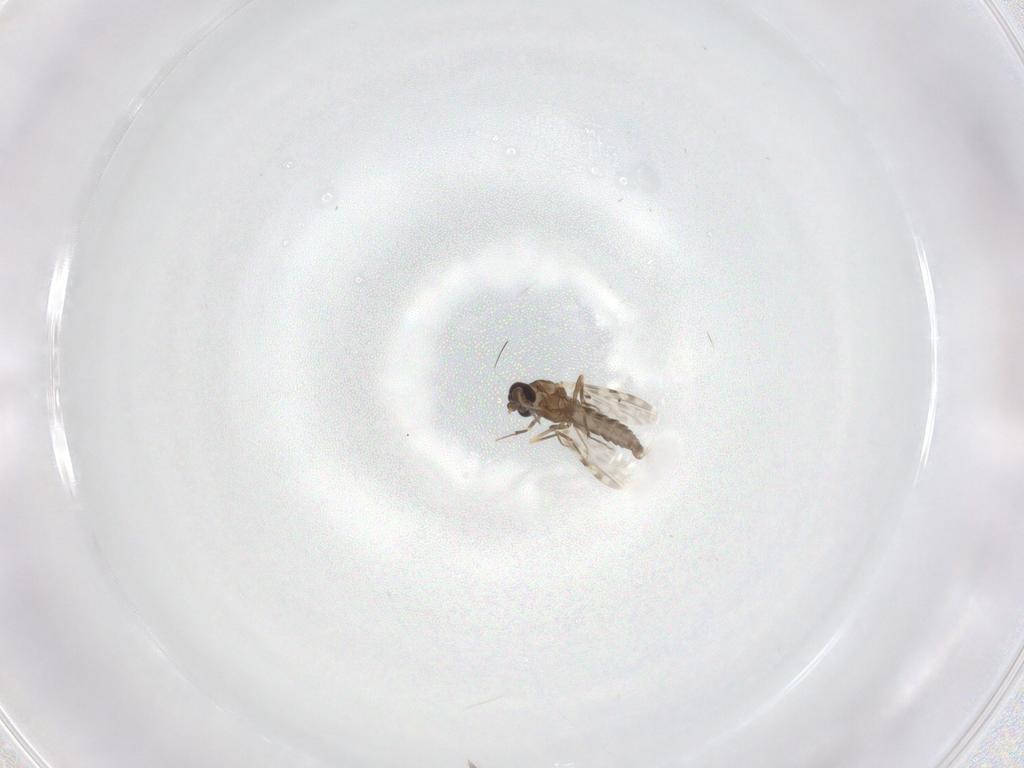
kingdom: Animalia
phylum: Arthropoda
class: Insecta
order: Diptera
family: Ceratopogonidae
